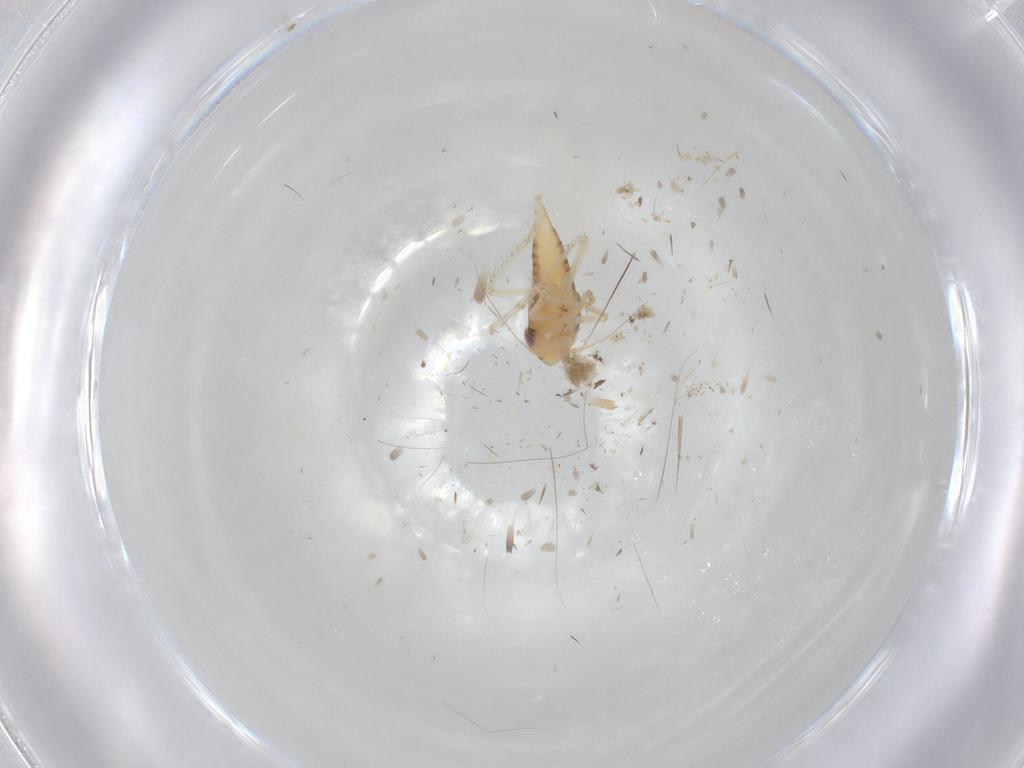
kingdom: Animalia
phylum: Arthropoda
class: Insecta
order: Hemiptera
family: Cicadellidae
